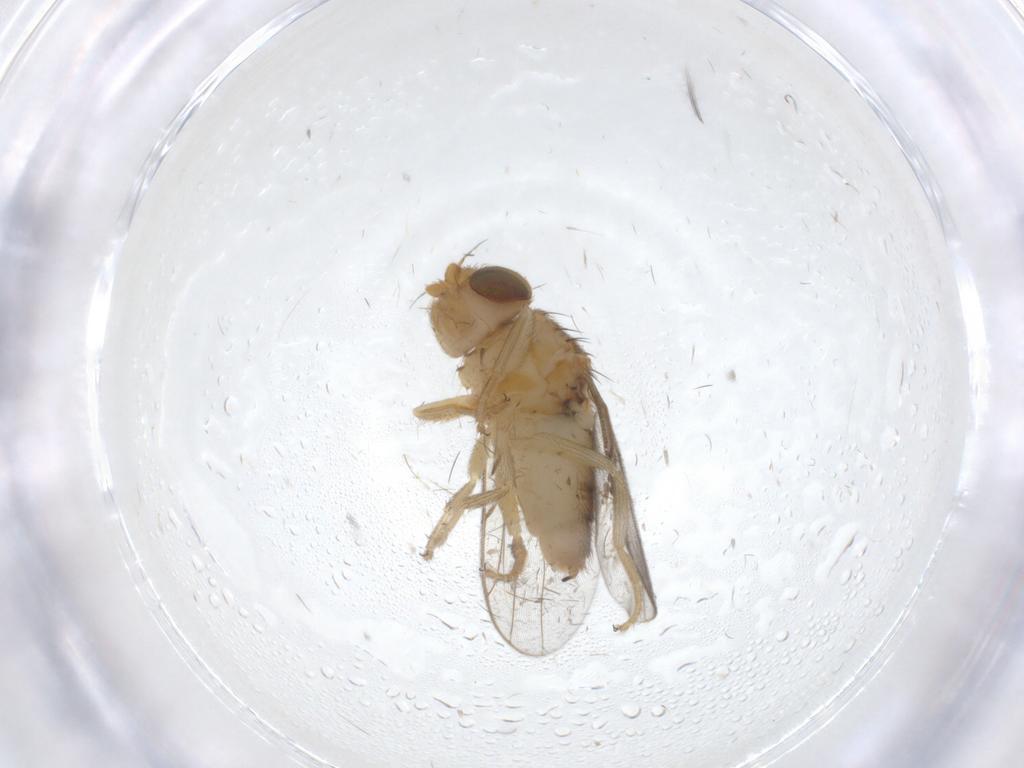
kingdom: Animalia
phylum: Arthropoda
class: Insecta
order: Diptera
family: Chloropidae
